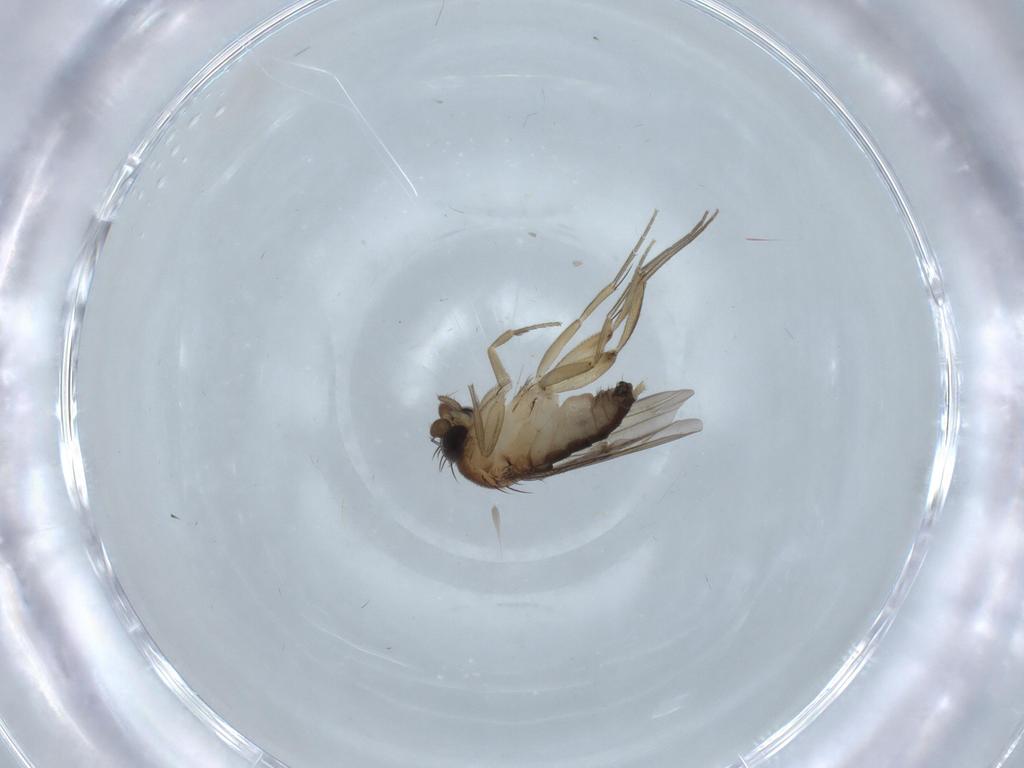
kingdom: Animalia
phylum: Arthropoda
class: Insecta
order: Diptera
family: Phoridae
